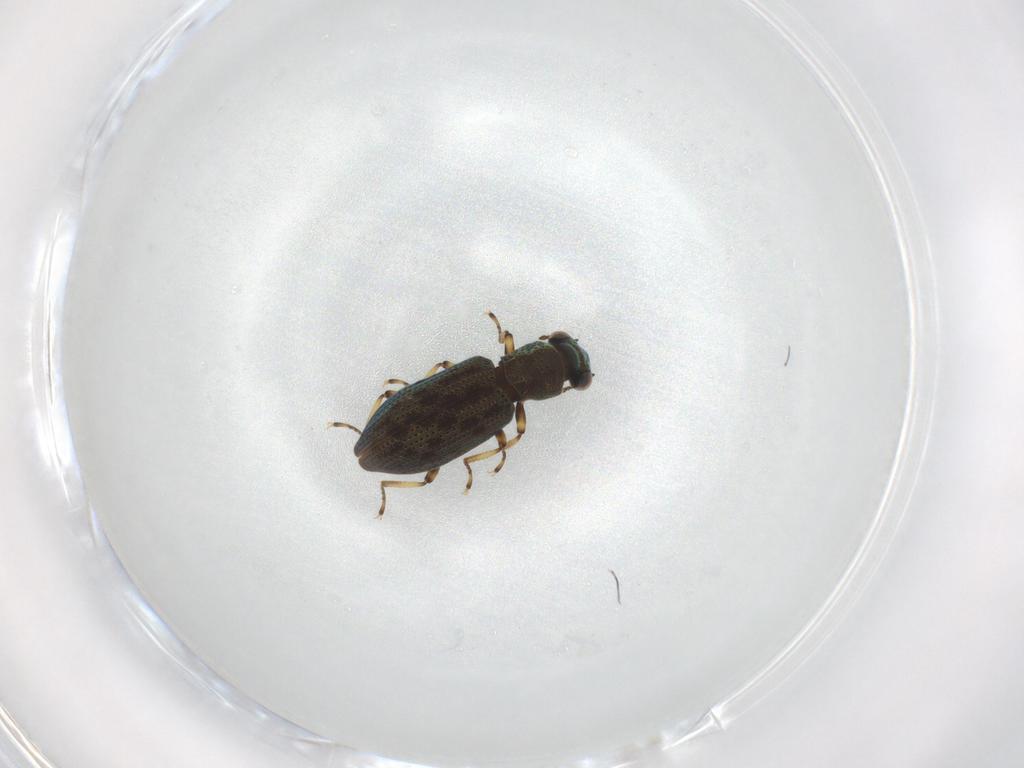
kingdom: Animalia
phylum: Arthropoda
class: Insecta
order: Coleoptera
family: Hydrophilidae
